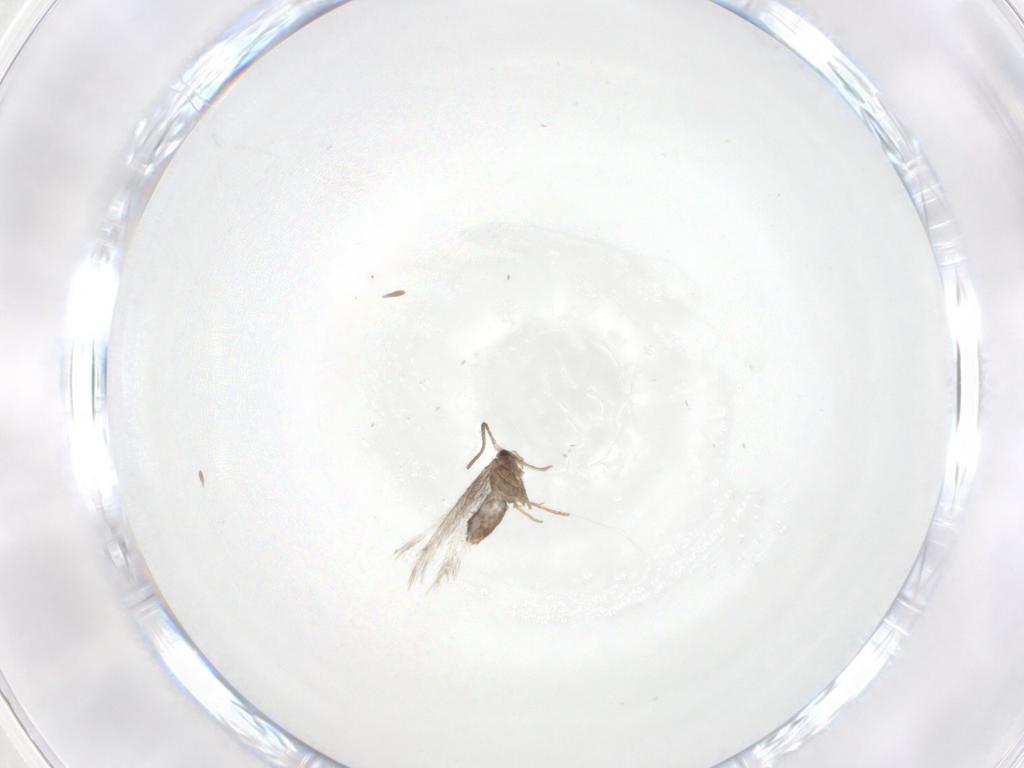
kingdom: Animalia
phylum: Arthropoda
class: Insecta
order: Lepidoptera
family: Nepticulidae
